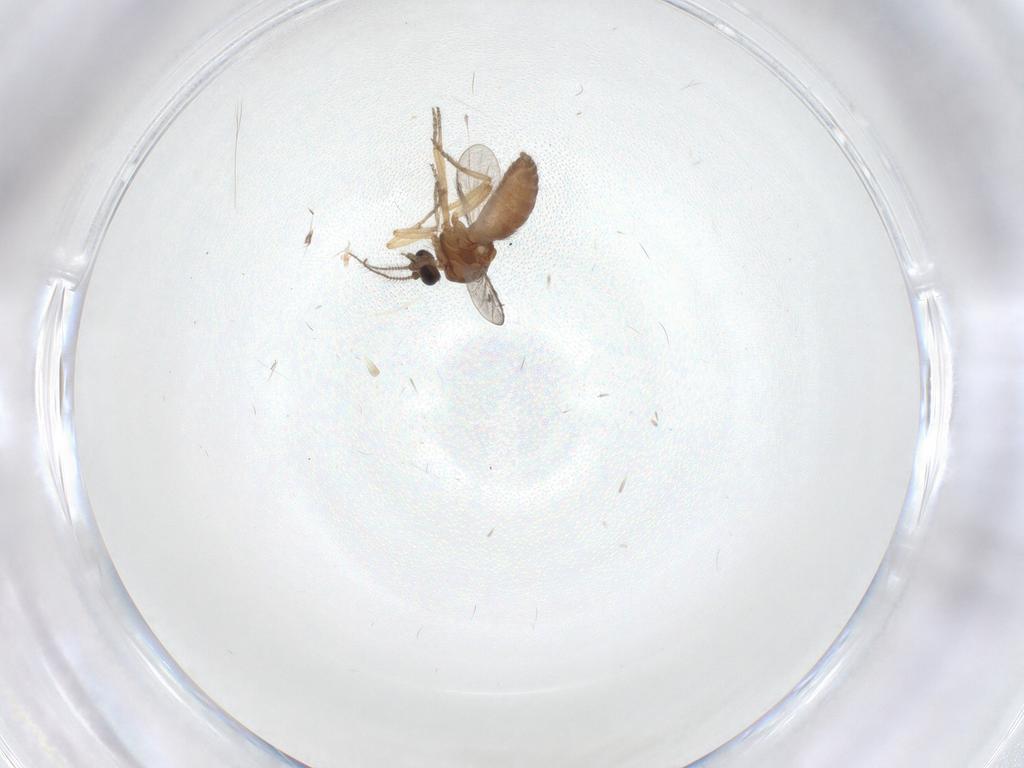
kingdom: Animalia
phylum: Arthropoda
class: Insecta
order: Diptera
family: Ceratopogonidae
